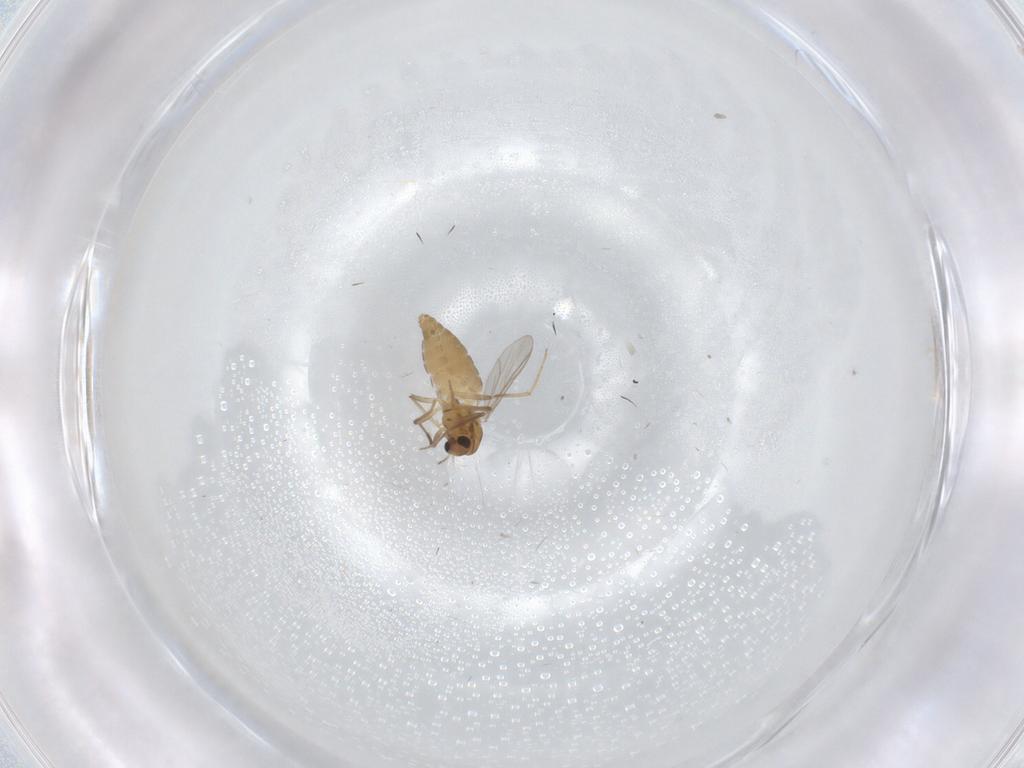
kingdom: Animalia
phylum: Arthropoda
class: Insecta
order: Diptera
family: Chironomidae
